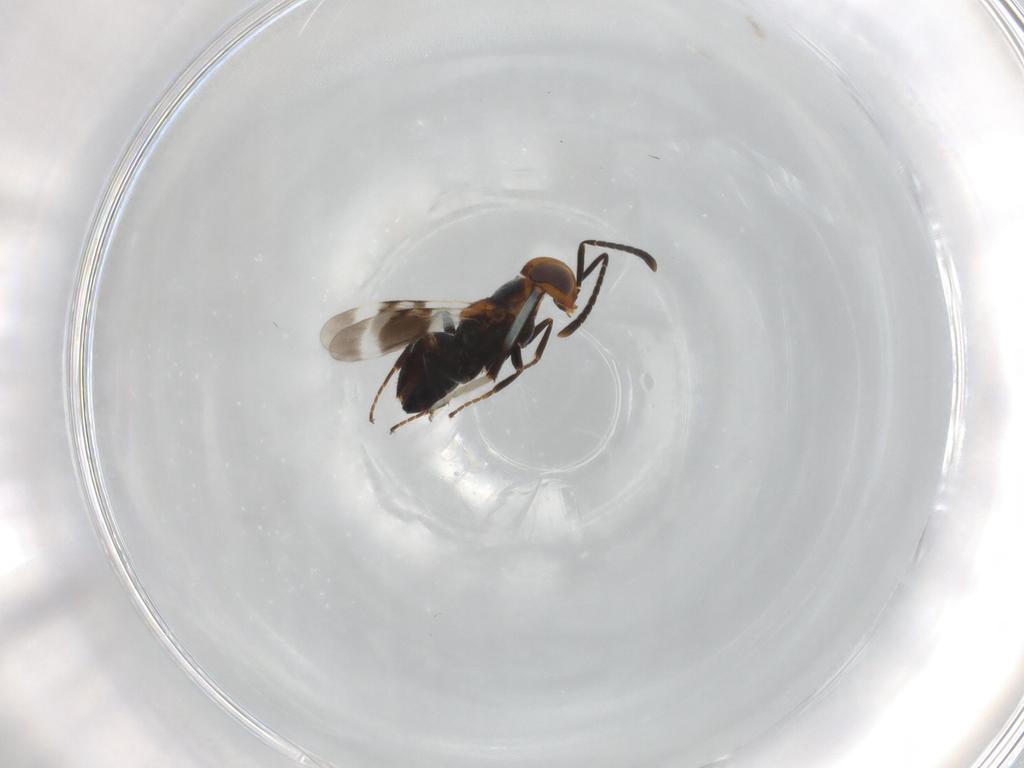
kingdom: Animalia
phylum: Arthropoda
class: Insecta
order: Hymenoptera
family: Encyrtidae
